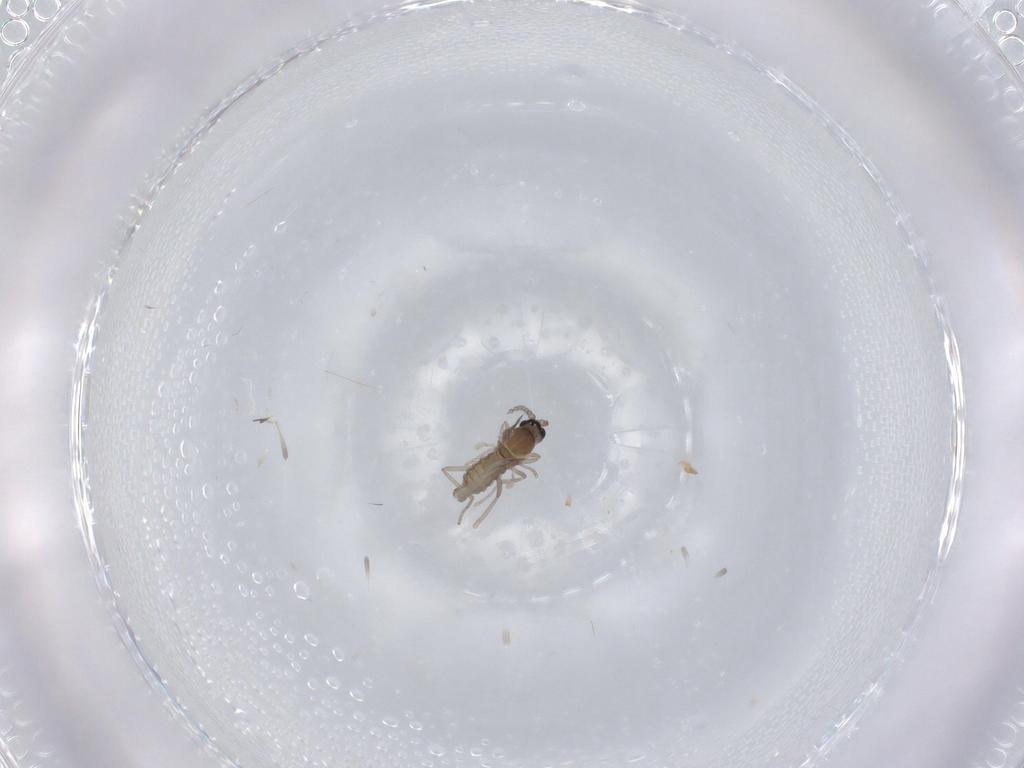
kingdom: Animalia
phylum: Arthropoda
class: Insecta
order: Diptera
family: Cecidomyiidae
